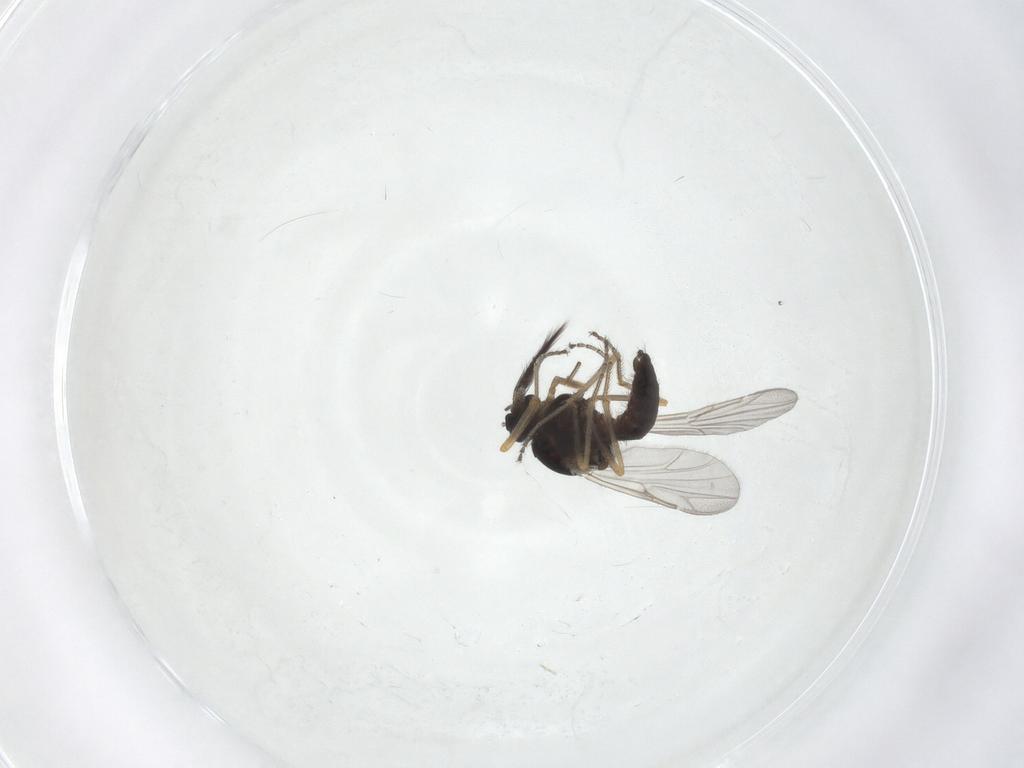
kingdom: Animalia
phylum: Arthropoda
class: Insecta
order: Diptera
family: Ceratopogonidae
